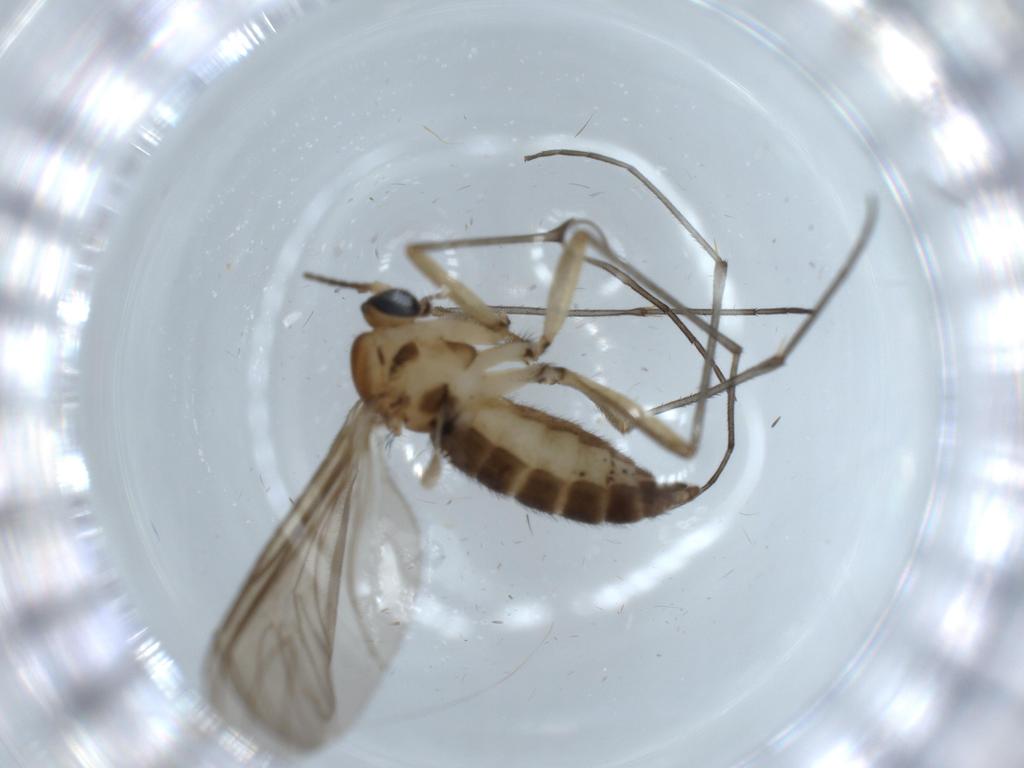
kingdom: Animalia
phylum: Arthropoda
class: Insecta
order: Diptera
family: Cecidomyiidae
